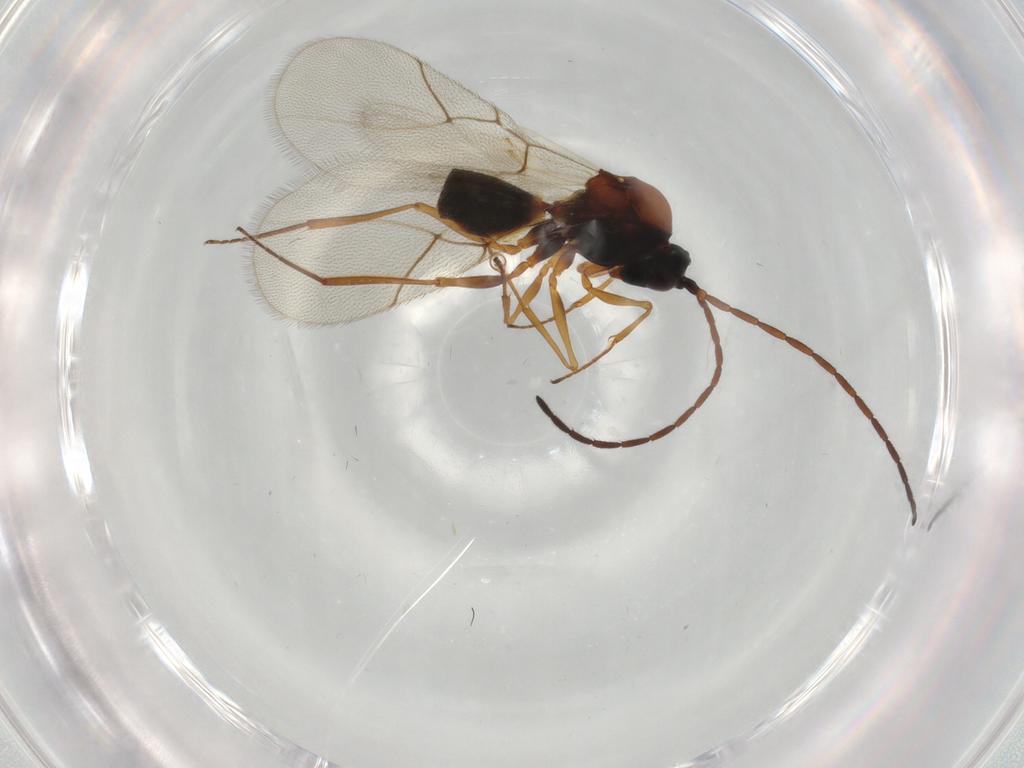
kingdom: Animalia
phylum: Arthropoda
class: Insecta
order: Hymenoptera
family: Figitidae
